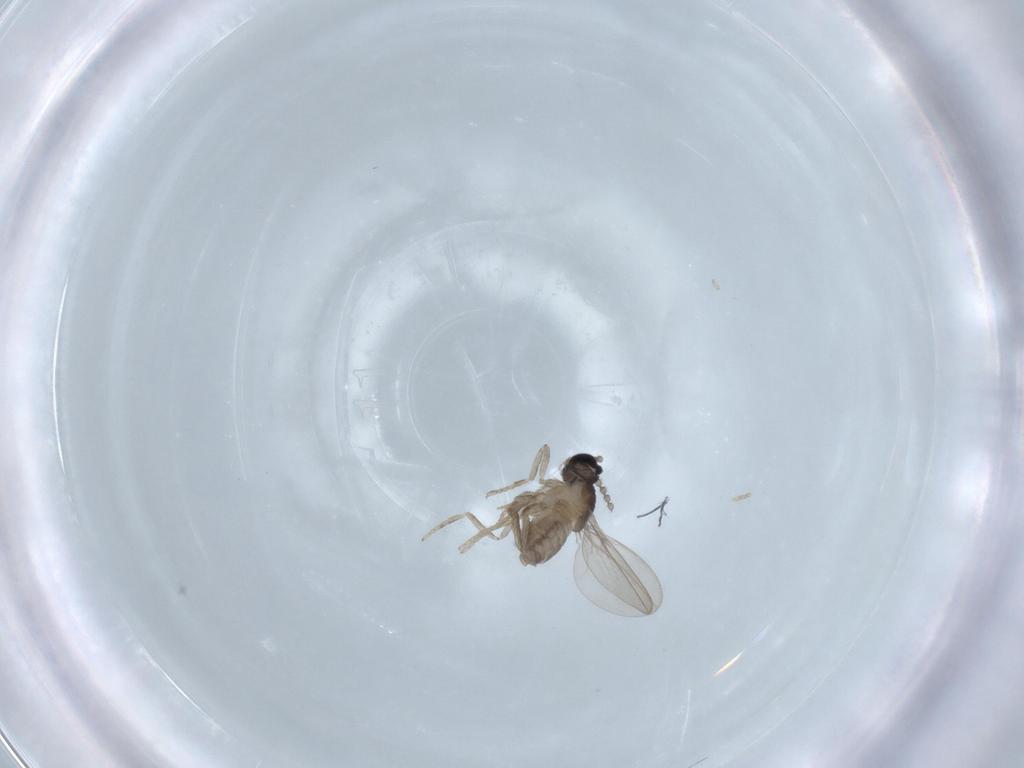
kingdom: Animalia
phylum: Arthropoda
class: Insecta
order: Diptera
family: Cecidomyiidae
